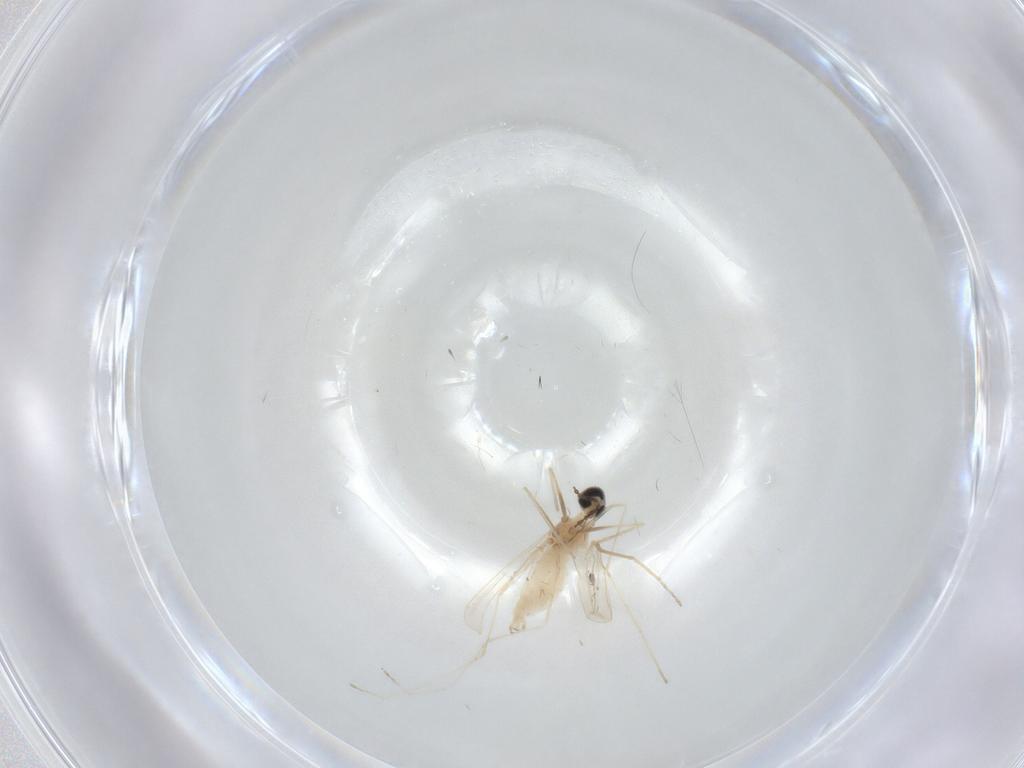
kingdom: Animalia
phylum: Arthropoda
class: Insecta
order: Diptera
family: Cecidomyiidae
